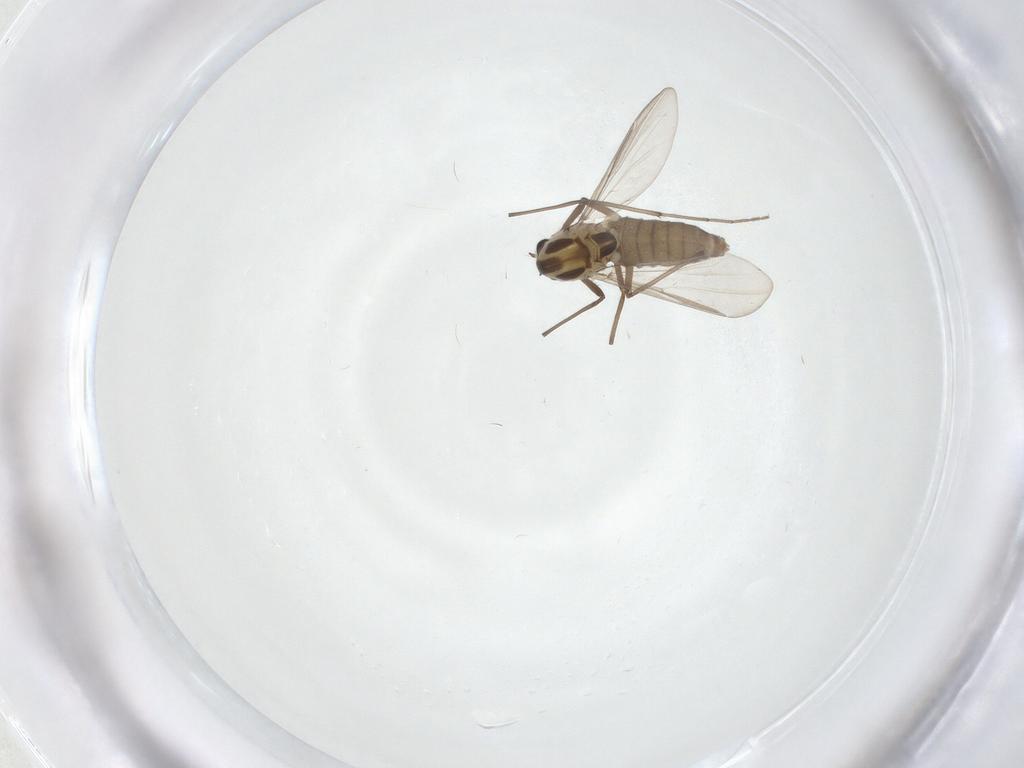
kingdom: Animalia
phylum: Arthropoda
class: Insecta
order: Diptera
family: Chironomidae
